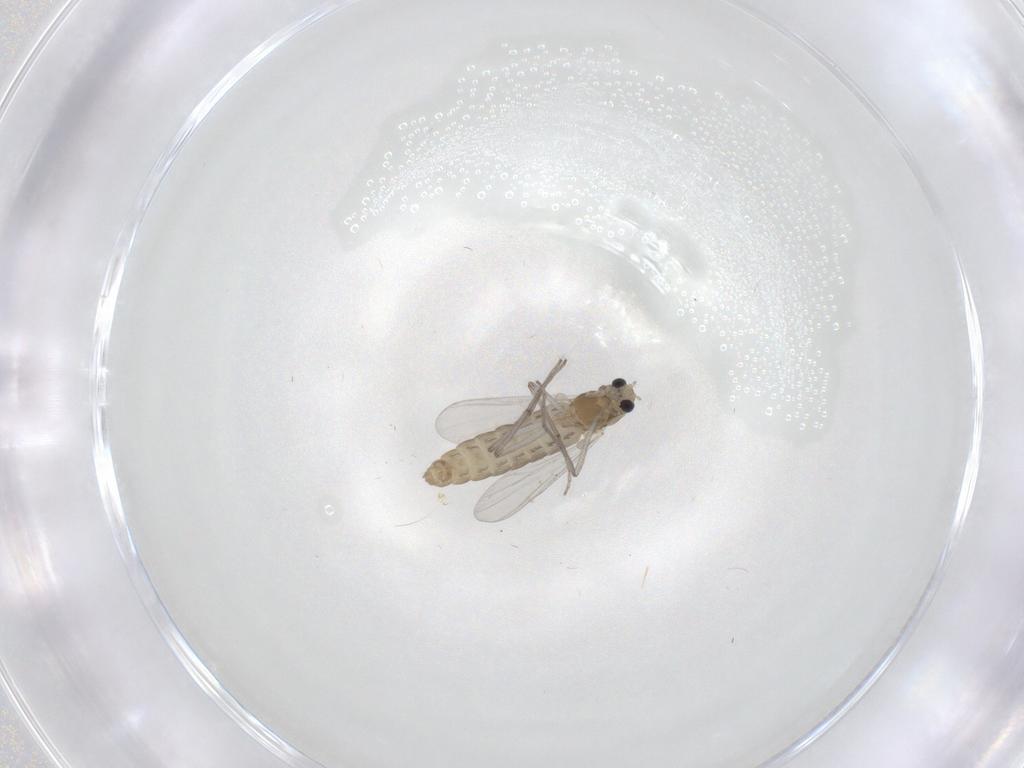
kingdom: Animalia
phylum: Arthropoda
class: Insecta
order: Diptera
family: Chironomidae
